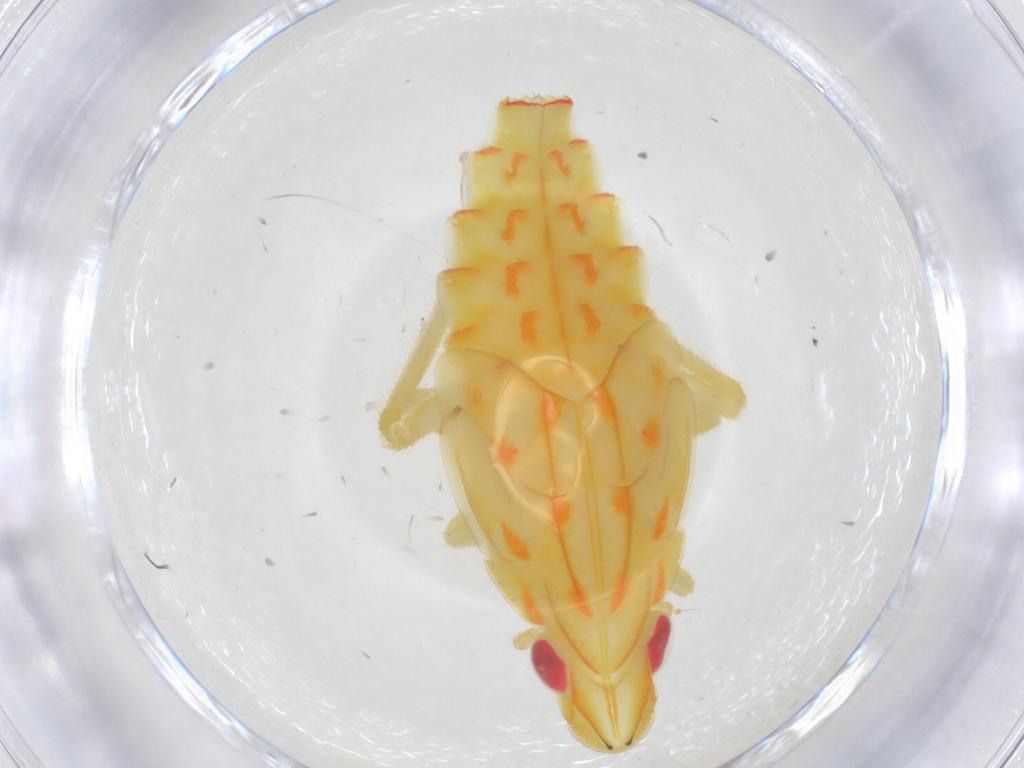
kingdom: Animalia
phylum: Arthropoda
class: Insecta
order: Hemiptera
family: Tropiduchidae
